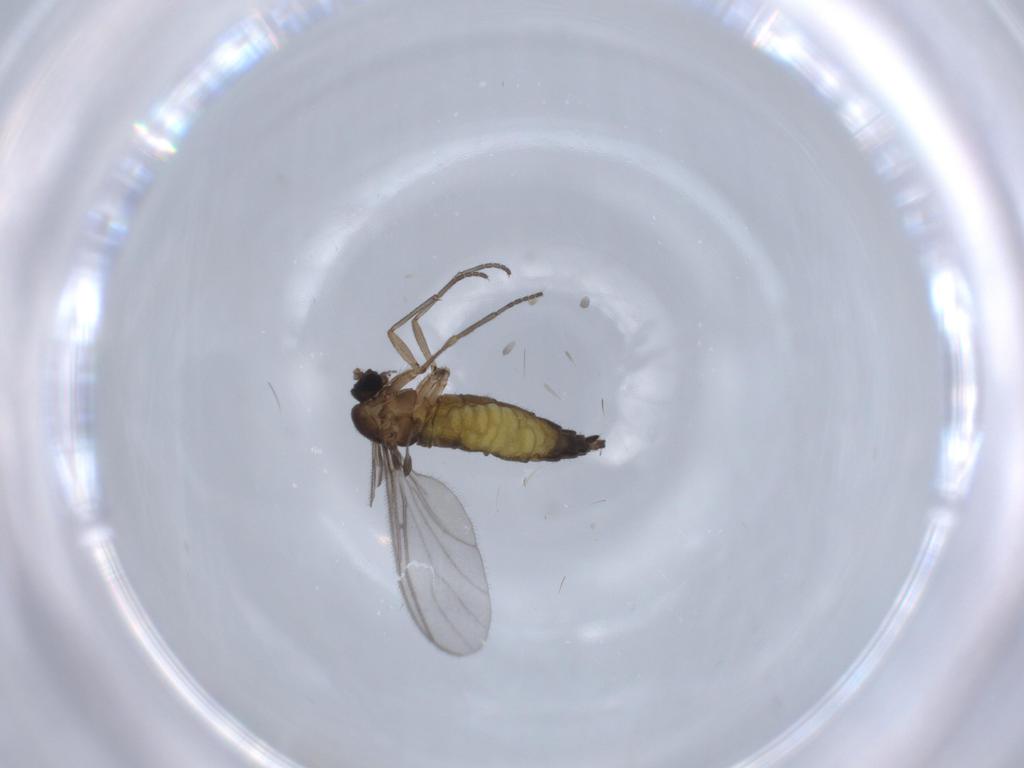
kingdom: Animalia
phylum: Arthropoda
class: Insecta
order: Diptera
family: Sciaridae
